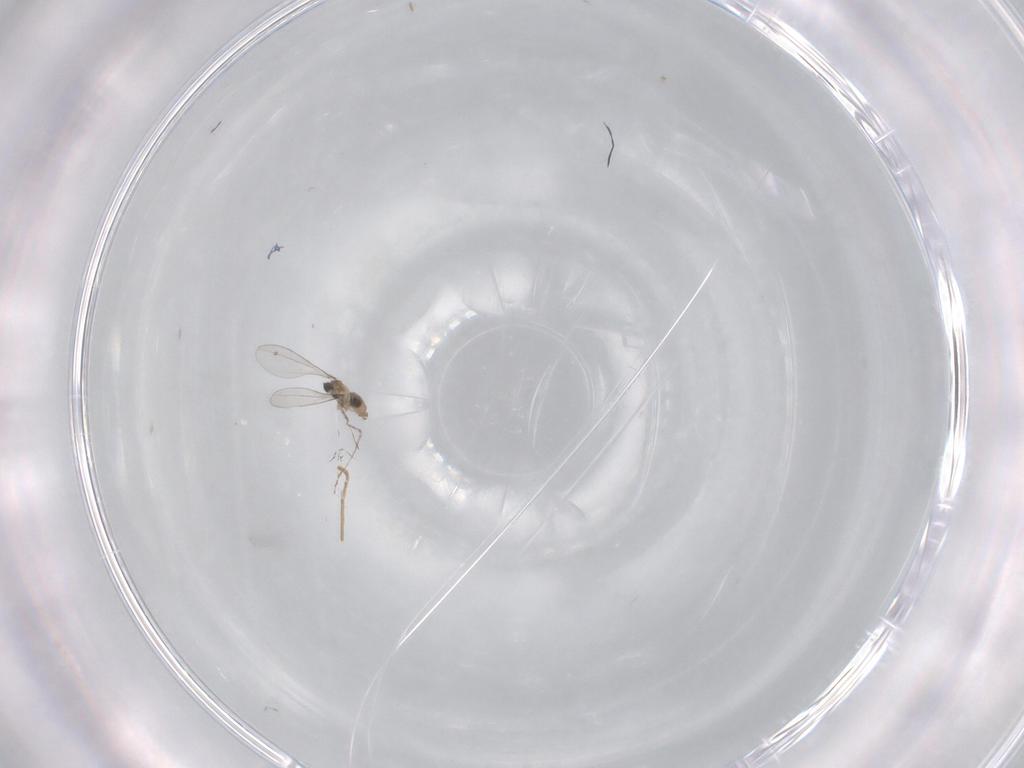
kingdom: Animalia
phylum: Arthropoda
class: Insecta
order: Diptera
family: Cecidomyiidae
